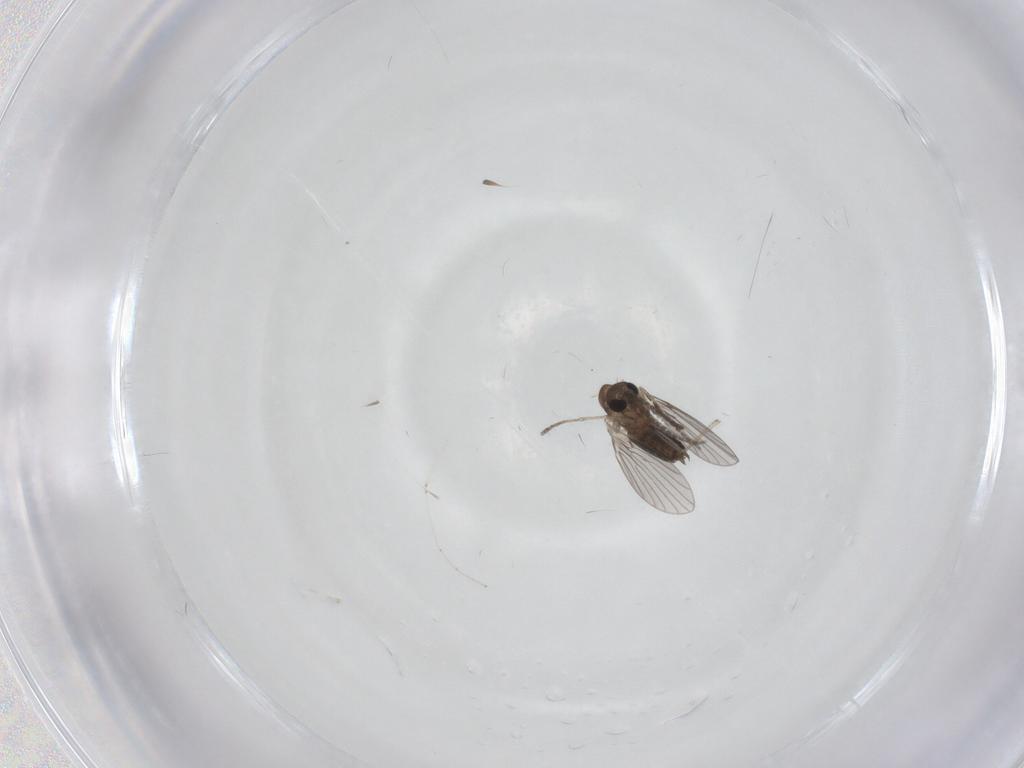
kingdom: Animalia
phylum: Arthropoda
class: Insecta
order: Diptera
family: Ceratopogonidae
